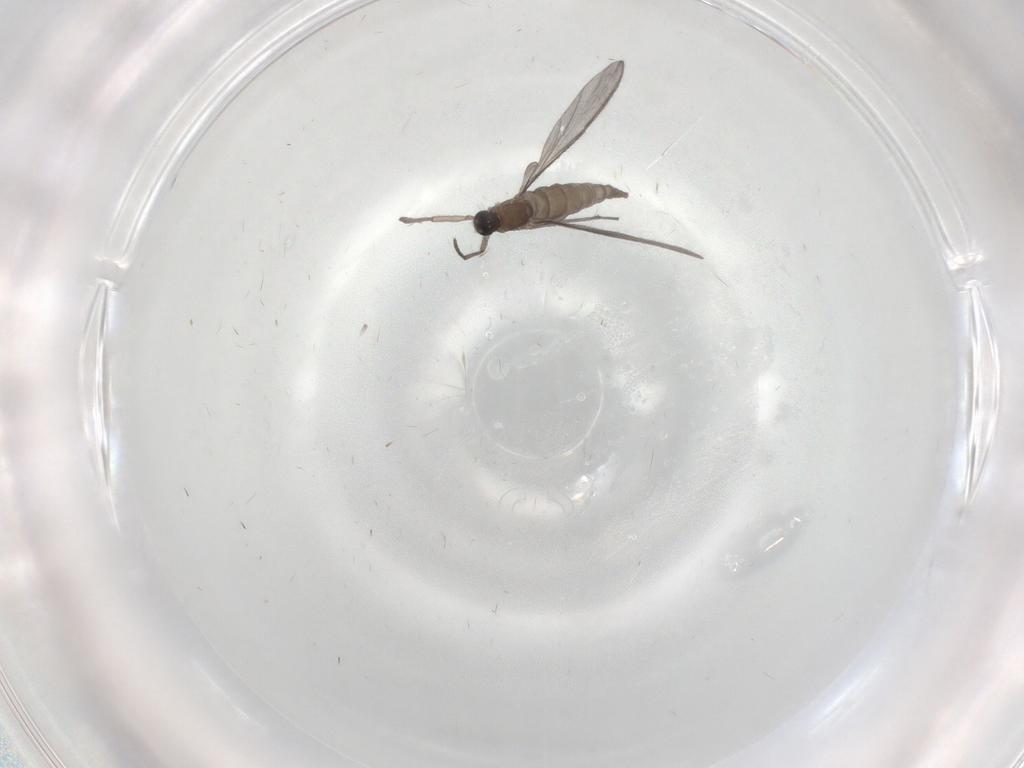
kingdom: Animalia
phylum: Arthropoda
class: Insecta
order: Diptera
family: Sciaridae
